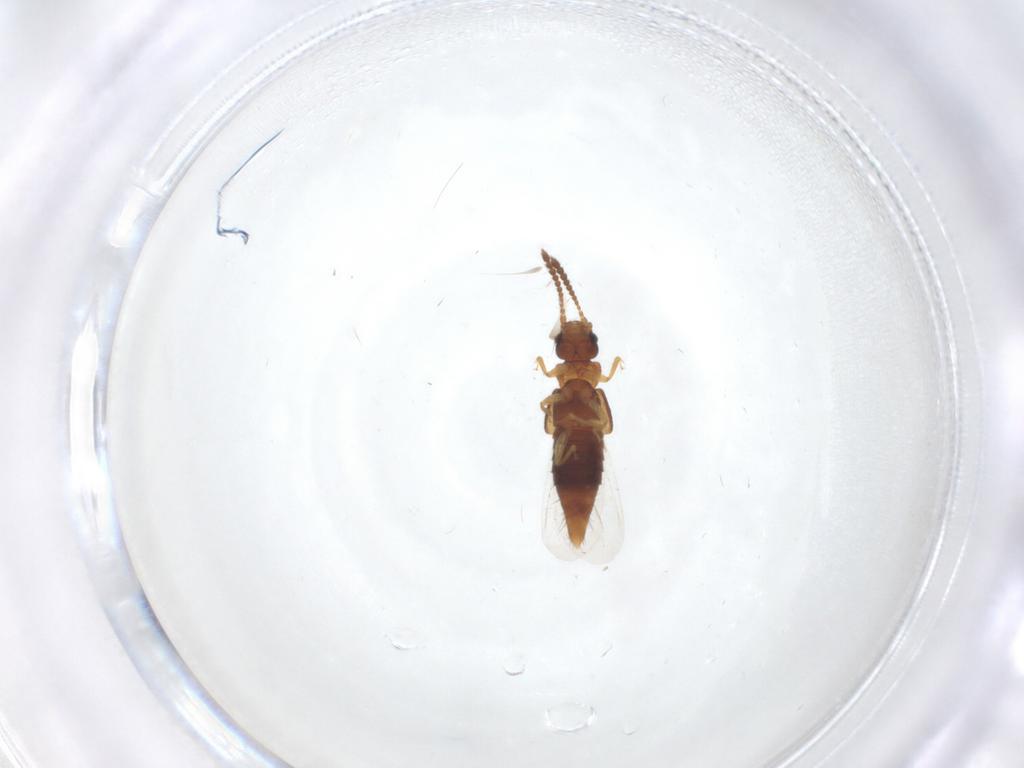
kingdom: Animalia
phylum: Arthropoda
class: Insecta
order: Coleoptera
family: Staphylinidae
